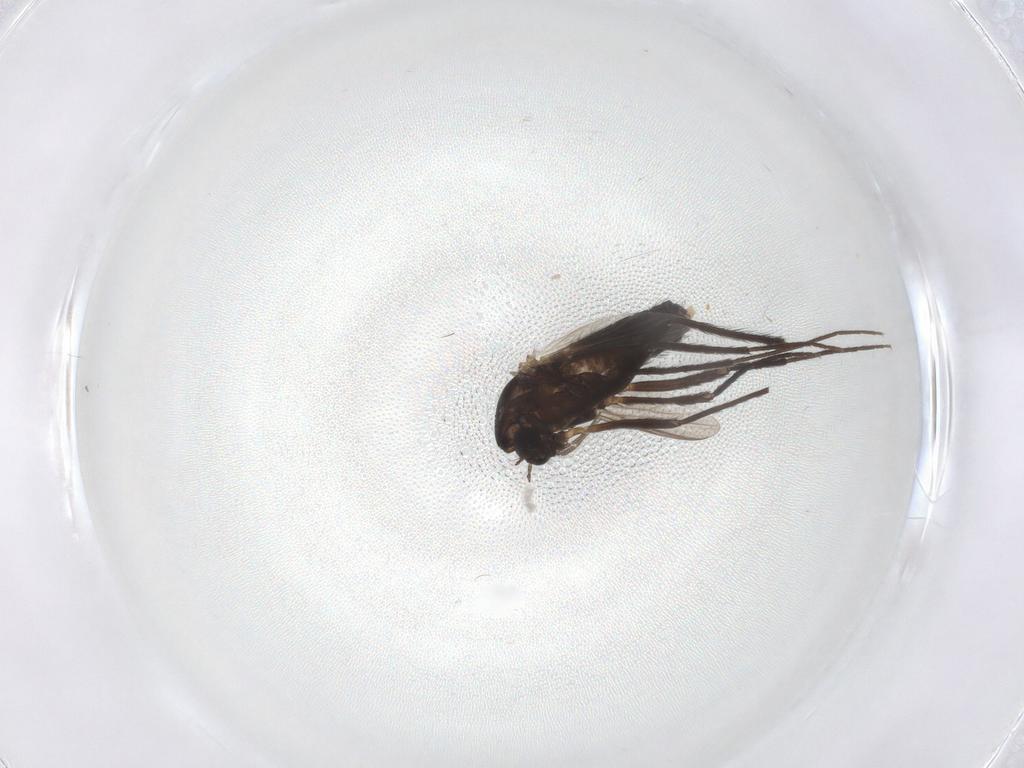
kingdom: Animalia
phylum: Arthropoda
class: Insecta
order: Diptera
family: Chironomidae
